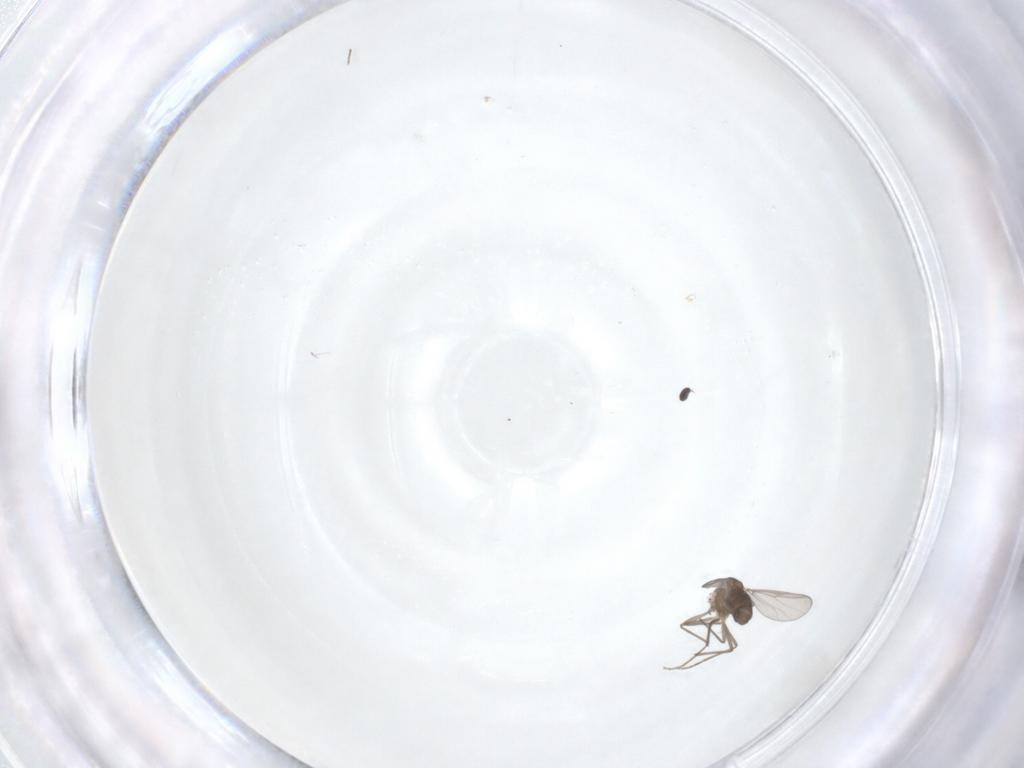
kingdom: Animalia
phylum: Arthropoda
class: Insecta
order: Diptera
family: Chironomidae
